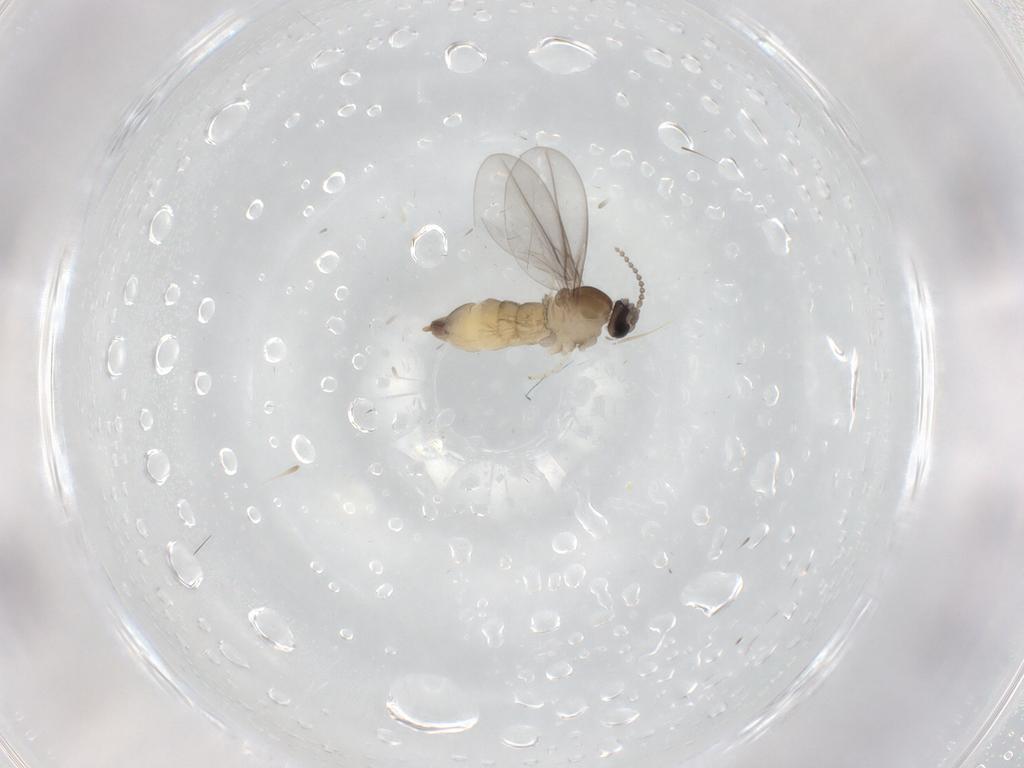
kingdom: Animalia
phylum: Arthropoda
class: Insecta
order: Diptera
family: Cecidomyiidae
